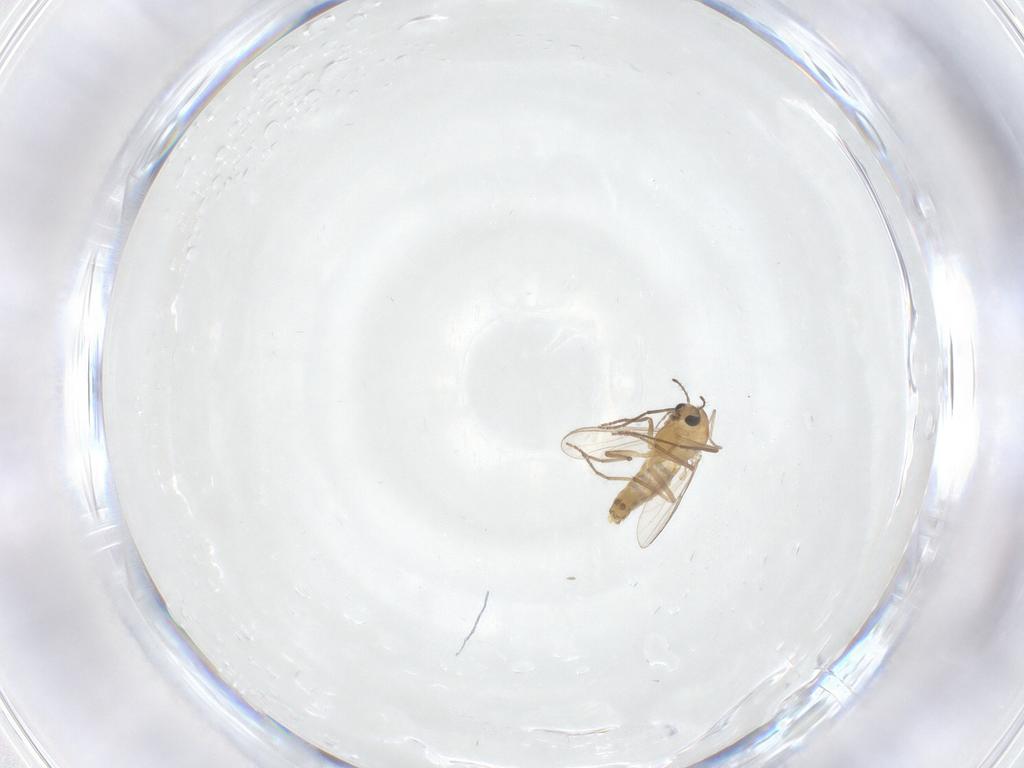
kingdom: Animalia
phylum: Arthropoda
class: Insecta
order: Diptera
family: Chironomidae
